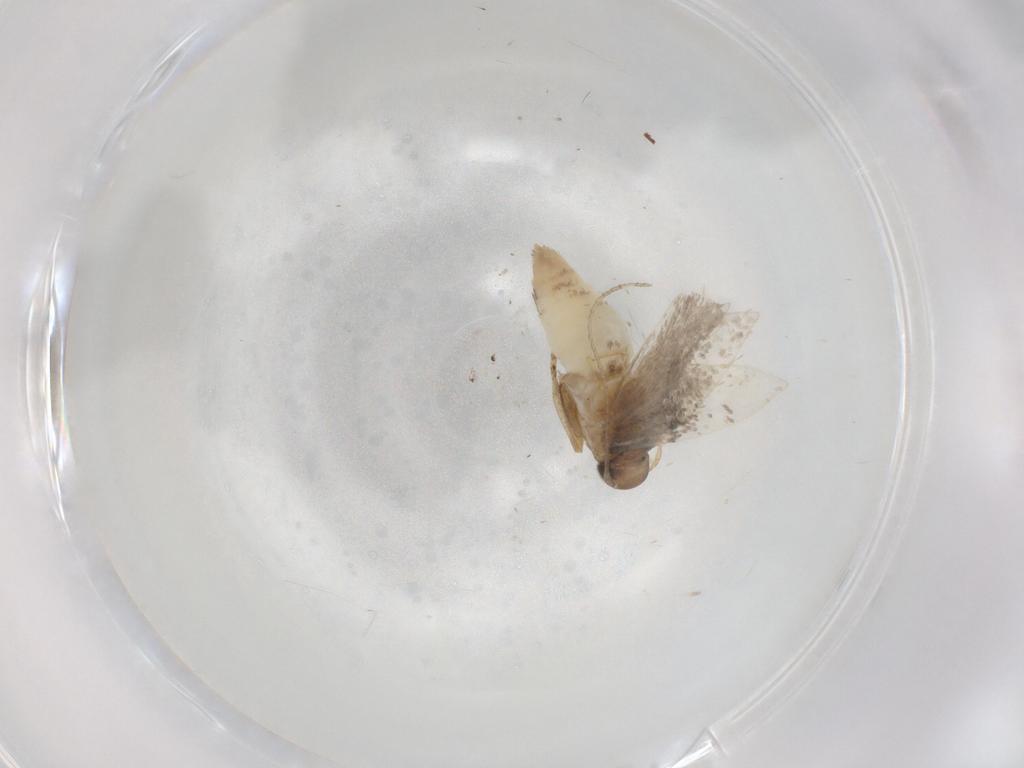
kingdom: Animalia
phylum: Arthropoda
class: Insecta
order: Lepidoptera
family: Gelechiidae
